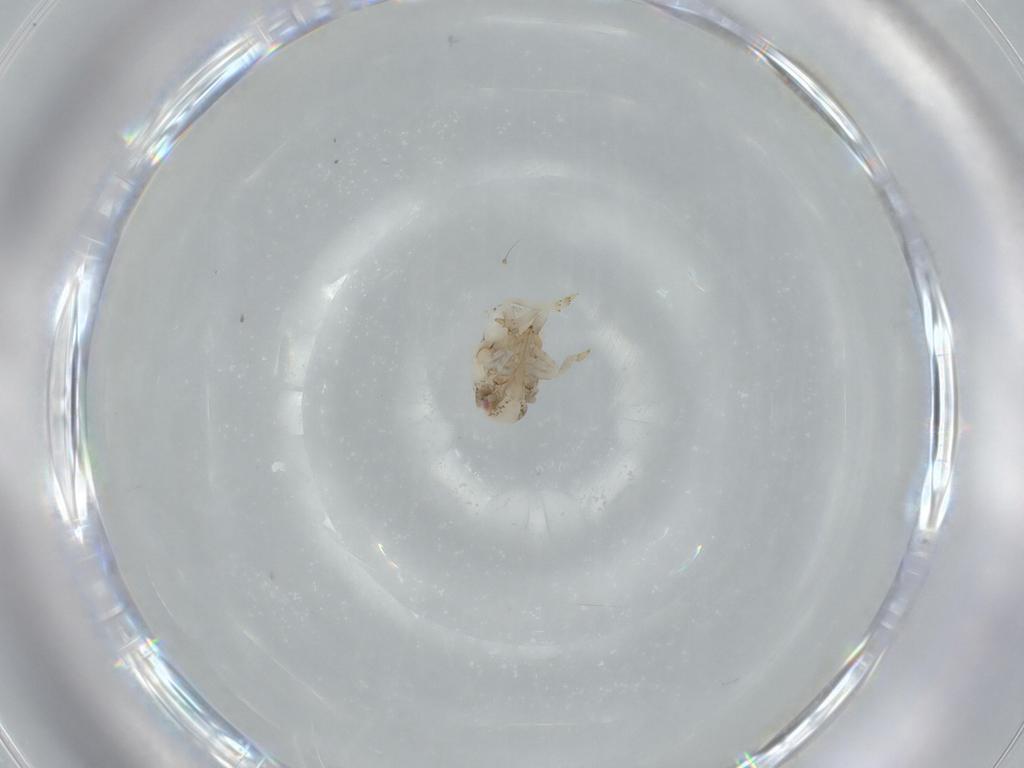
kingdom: Animalia
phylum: Arthropoda
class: Insecta
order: Hemiptera
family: Acanaloniidae
